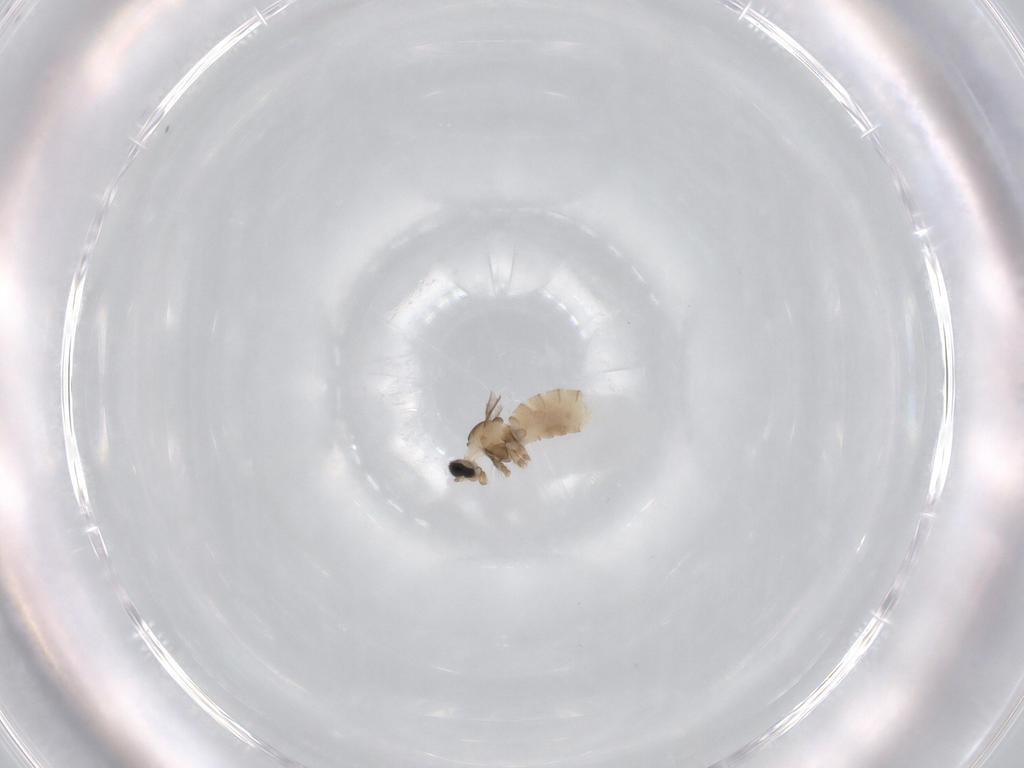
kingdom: Animalia
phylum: Arthropoda
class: Insecta
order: Diptera
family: Cecidomyiidae
